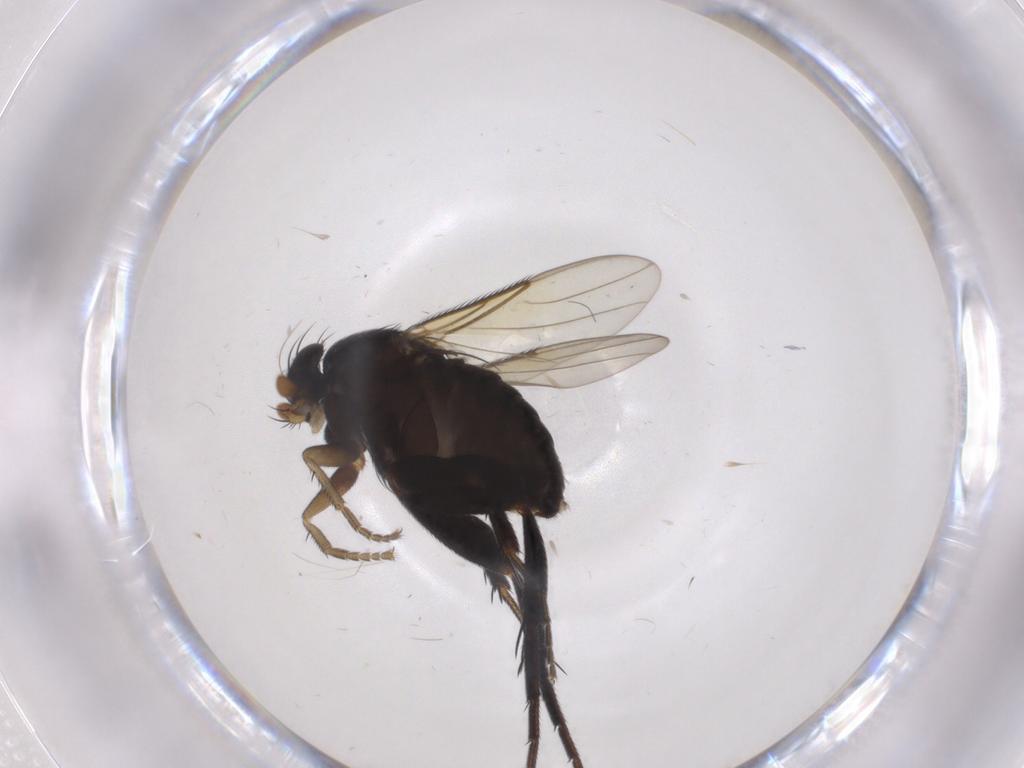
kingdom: Animalia
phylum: Arthropoda
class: Insecta
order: Diptera
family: Phoridae
